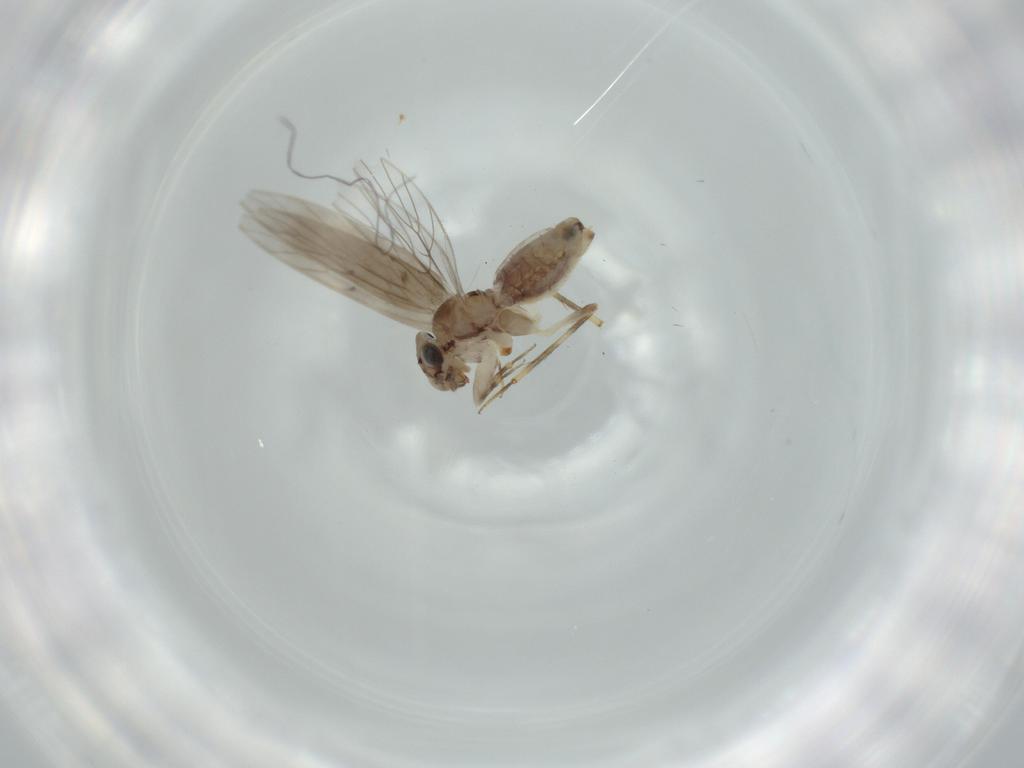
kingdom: Animalia
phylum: Arthropoda
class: Insecta
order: Psocodea
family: Lepidopsocidae
